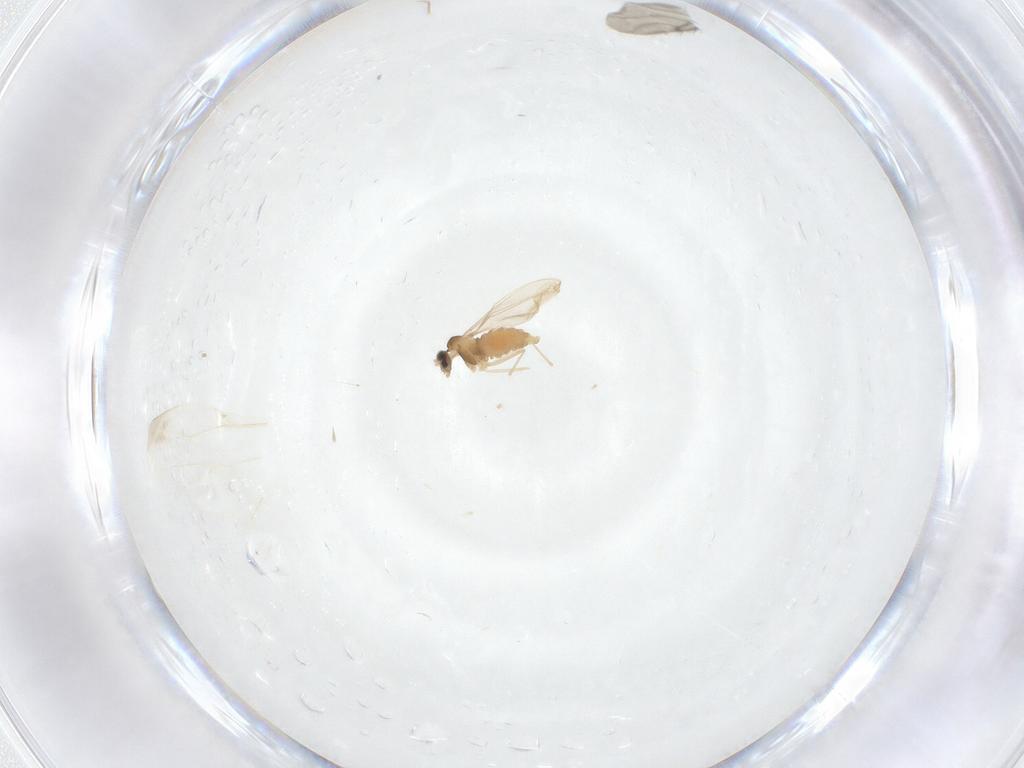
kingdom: Animalia
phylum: Arthropoda
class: Insecta
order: Diptera
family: Cecidomyiidae
